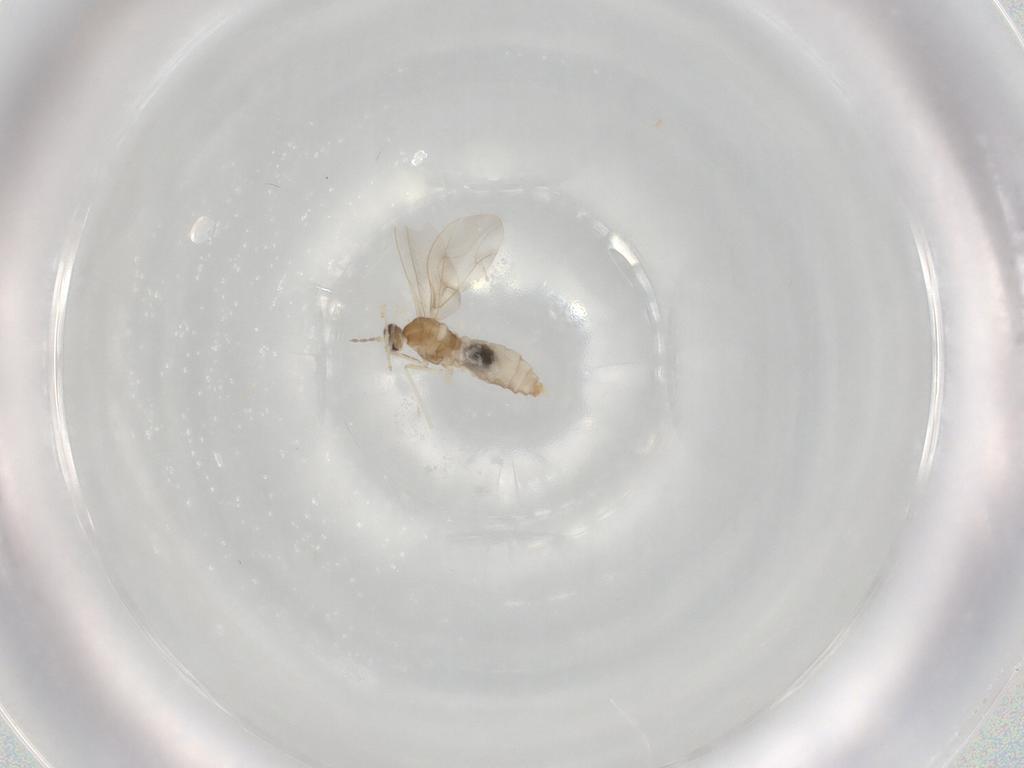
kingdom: Animalia
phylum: Arthropoda
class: Insecta
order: Diptera
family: Cecidomyiidae
